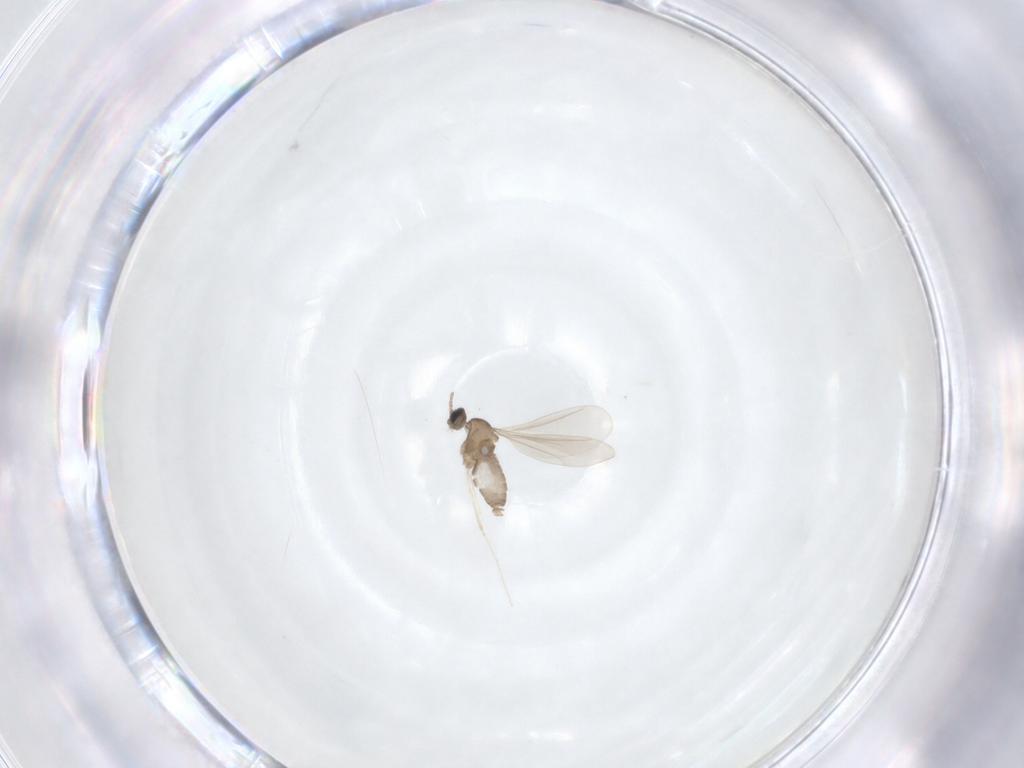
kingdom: Animalia
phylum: Arthropoda
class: Insecta
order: Diptera
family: Cecidomyiidae
